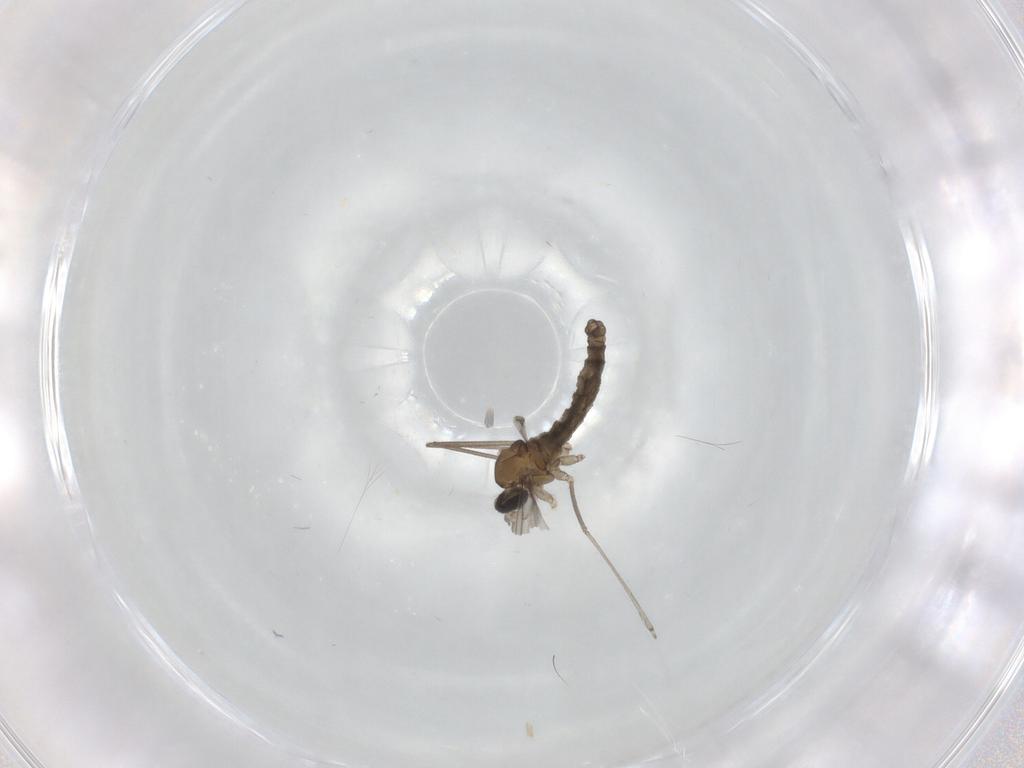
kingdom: Animalia
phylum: Arthropoda
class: Insecta
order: Diptera
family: Cecidomyiidae
